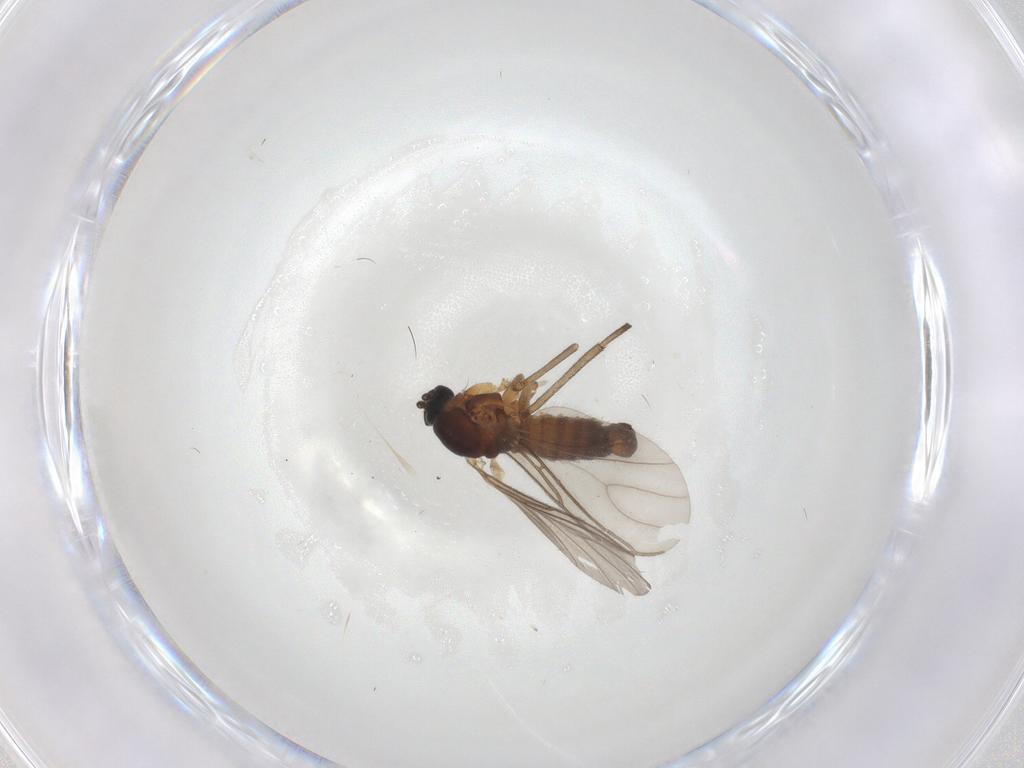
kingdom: Animalia
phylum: Arthropoda
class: Insecta
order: Diptera
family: Sciaridae
